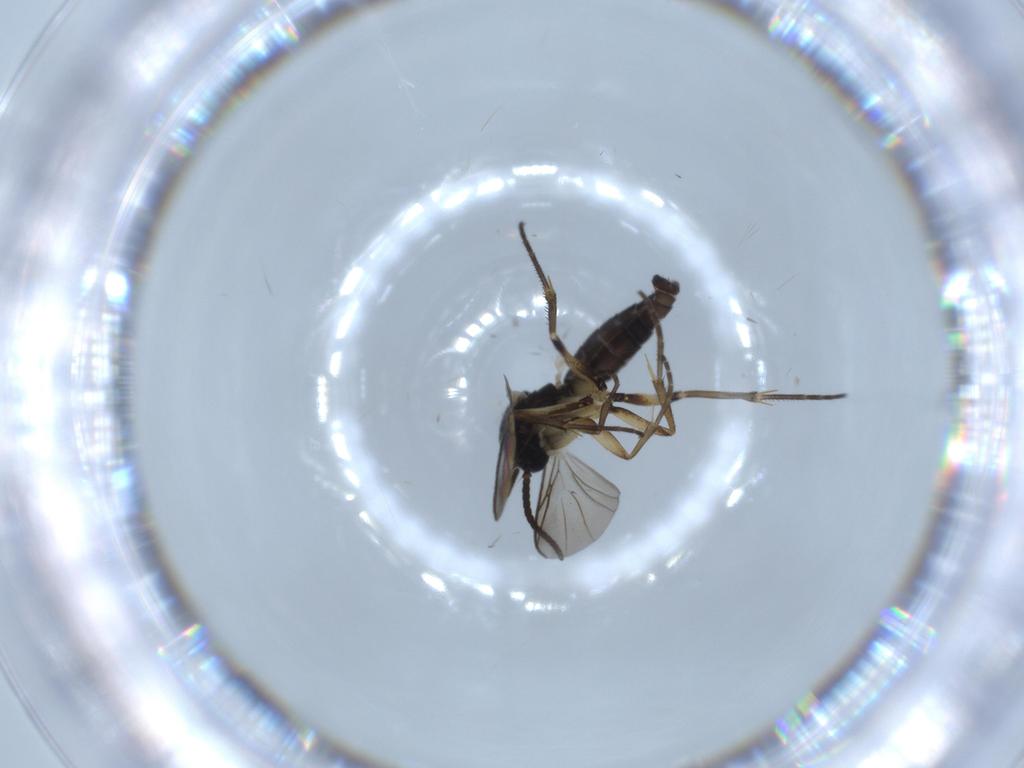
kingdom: Animalia
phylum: Arthropoda
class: Insecta
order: Diptera
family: Mycetophilidae
